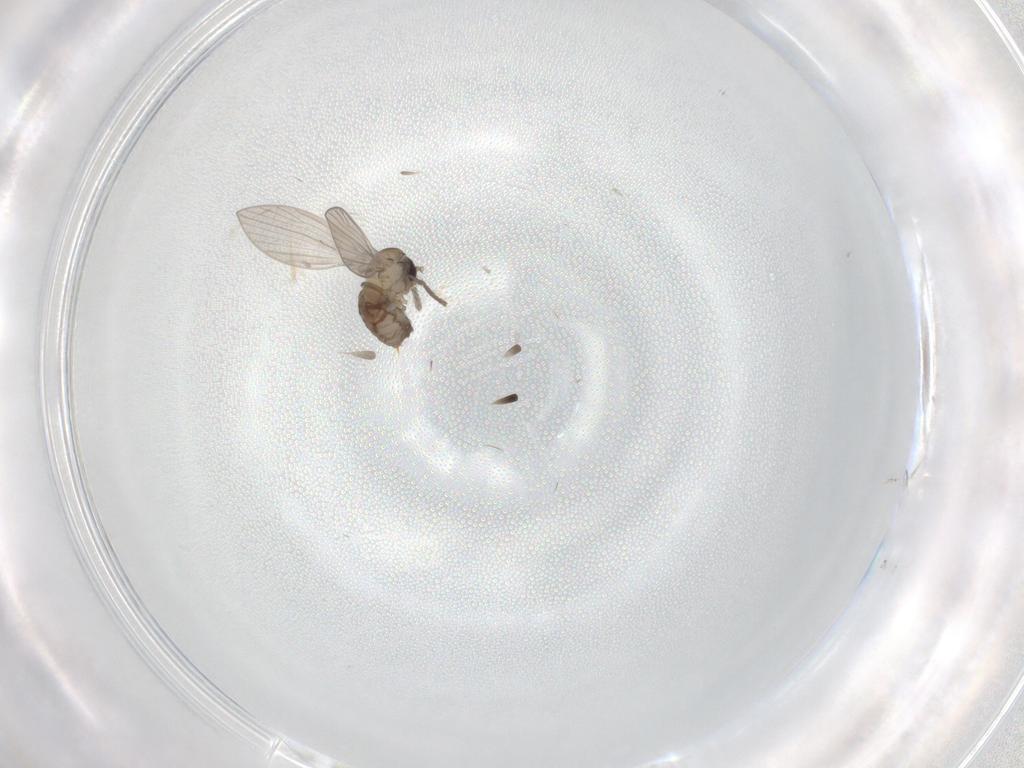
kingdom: Animalia
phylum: Arthropoda
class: Insecta
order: Diptera
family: Psychodidae
